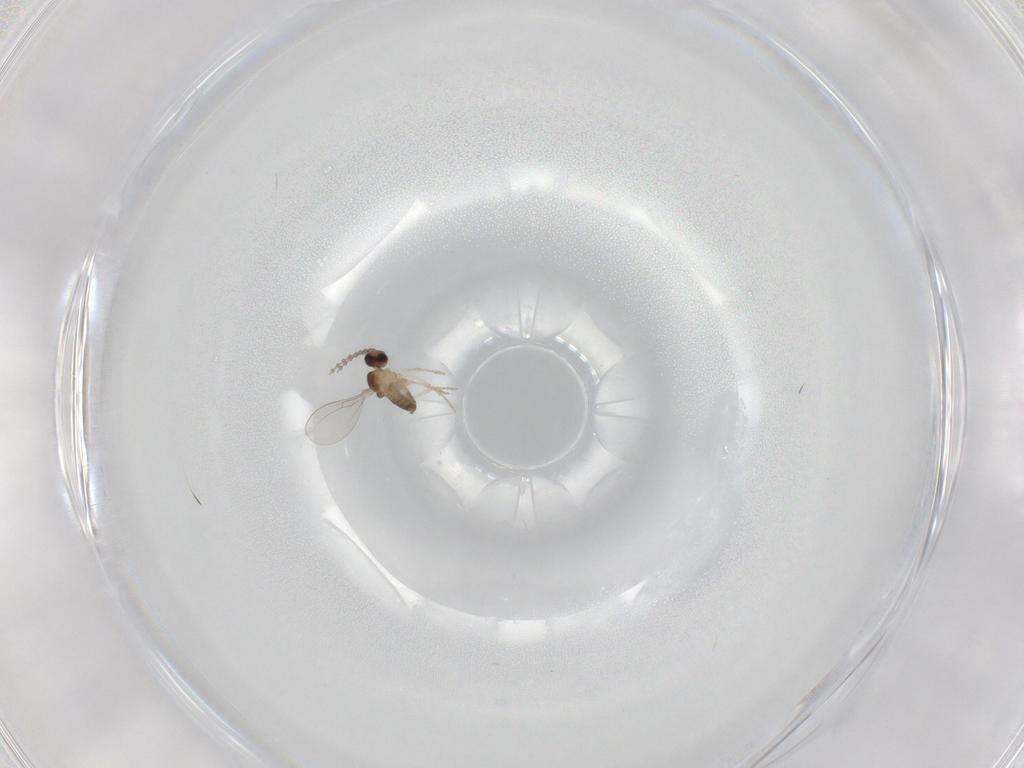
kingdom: Animalia
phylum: Arthropoda
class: Insecta
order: Diptera
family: Cecidomyiidae
